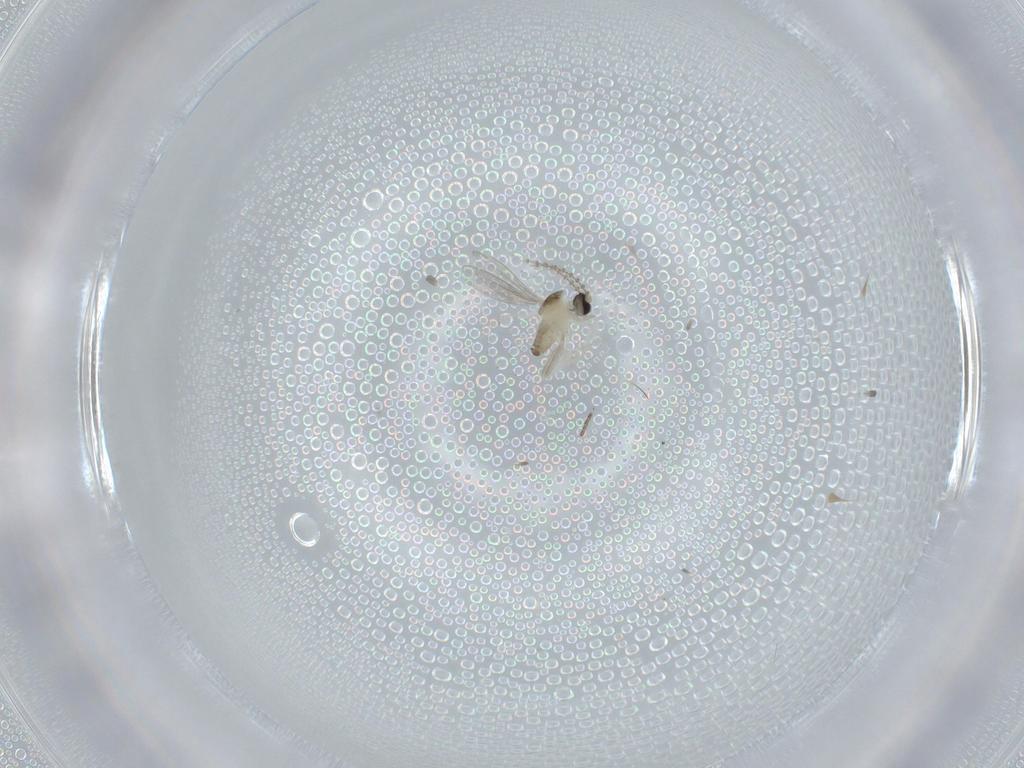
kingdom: Animalia
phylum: Arthropoda
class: Insecta
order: Diptera
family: Cecidomyiidae
